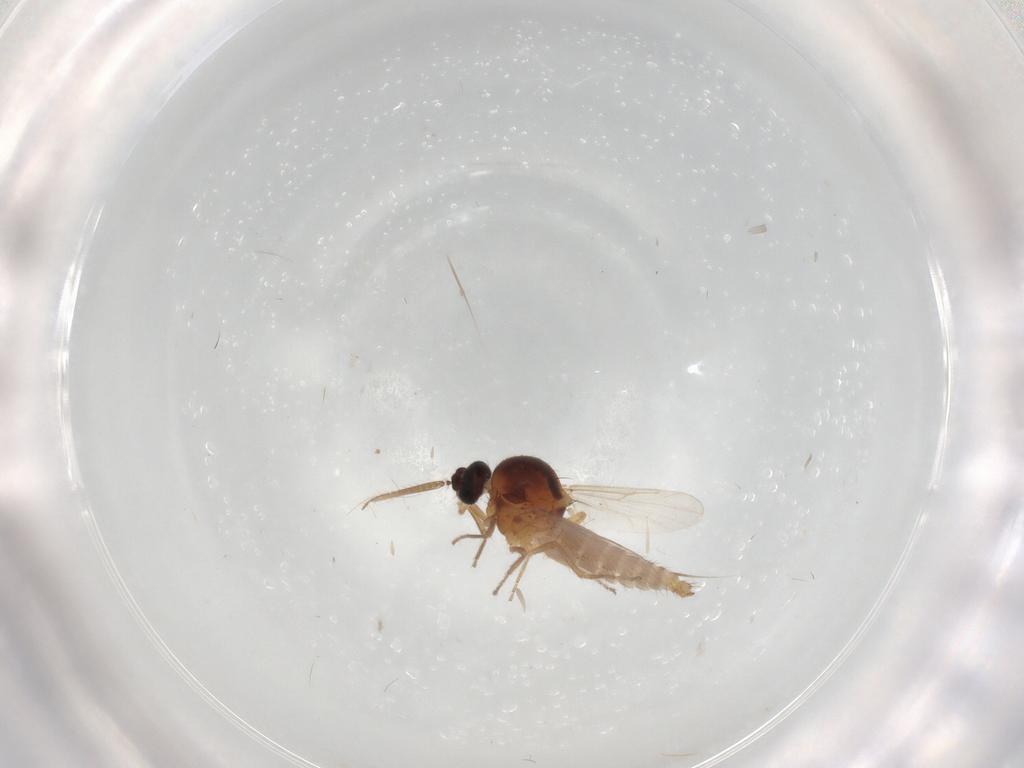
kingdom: Animalia
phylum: Arthropoda
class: Insecta
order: Diptera
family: Ceratopogonidae
